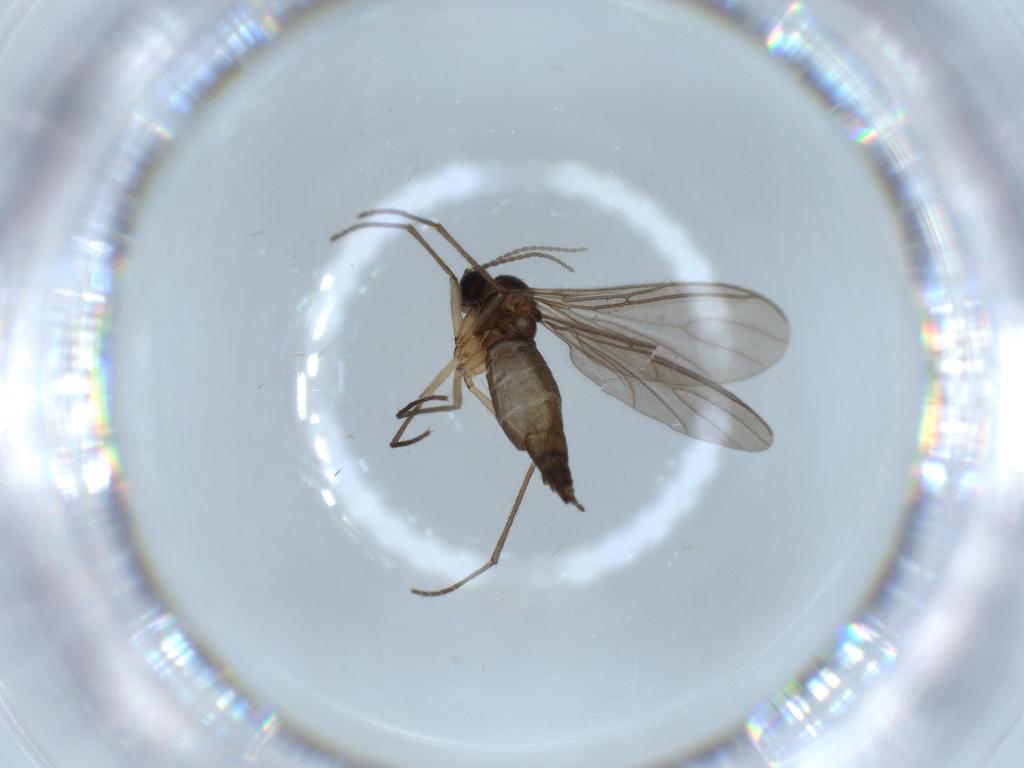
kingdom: Animalia
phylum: Arthropoda
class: Insecta
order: Diptera
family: Sciaridae
